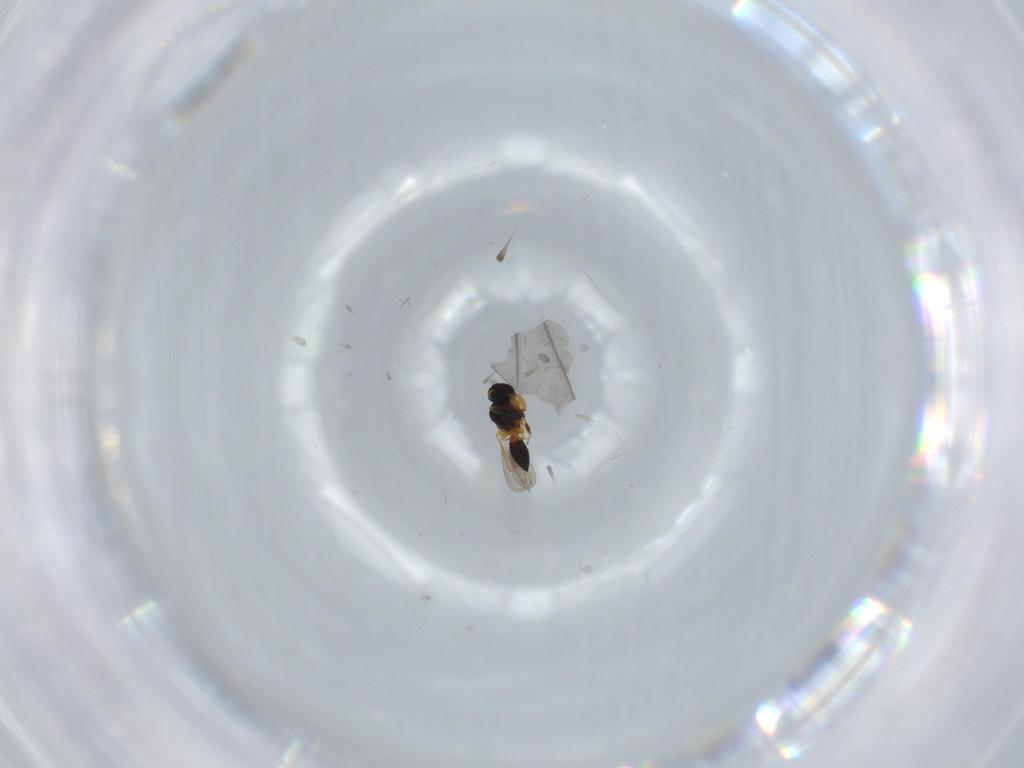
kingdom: Animalia
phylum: Arthropoda
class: Insecta
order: Hymenoptera
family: Platygastridae
